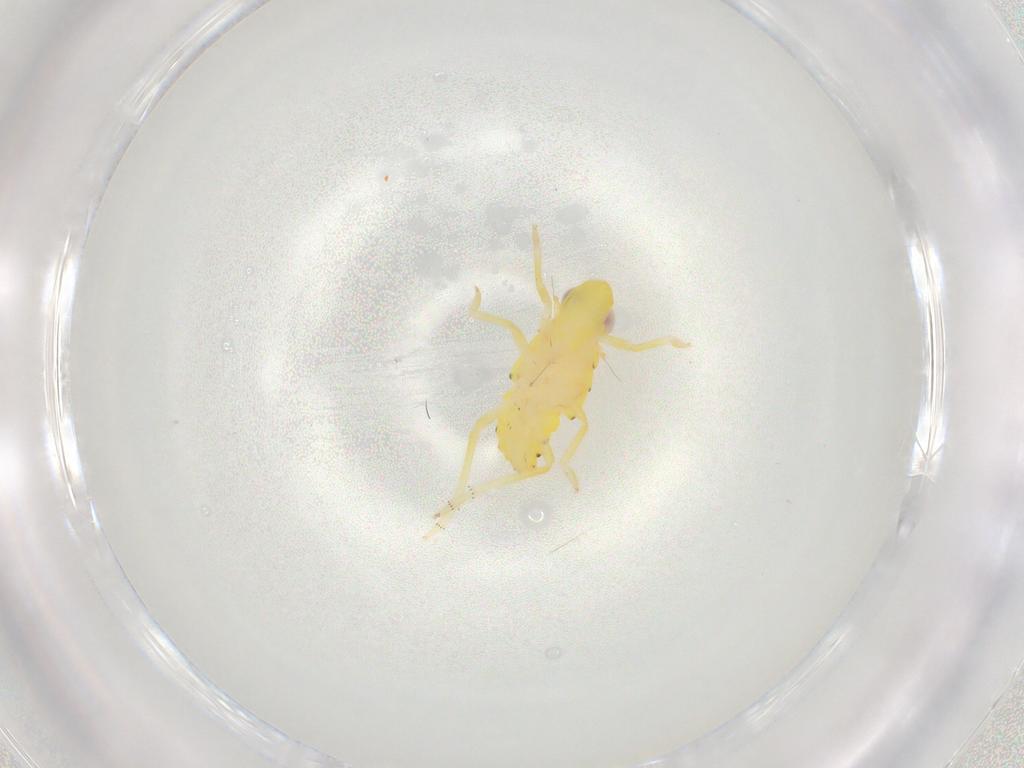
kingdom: Animalia
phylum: Arthropoda
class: Insecta
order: Hemiptera
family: Tropiduchidae
